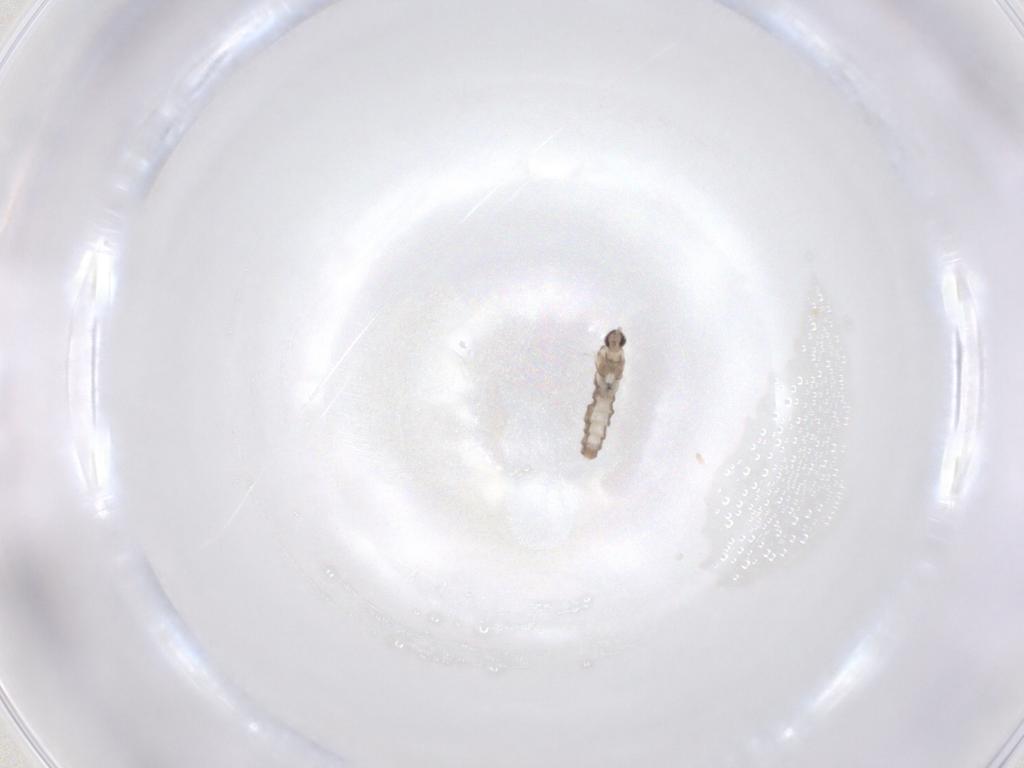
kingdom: Animalia
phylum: Arthropoda
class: Insecta
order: Diptera
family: Cecidomyiidae
